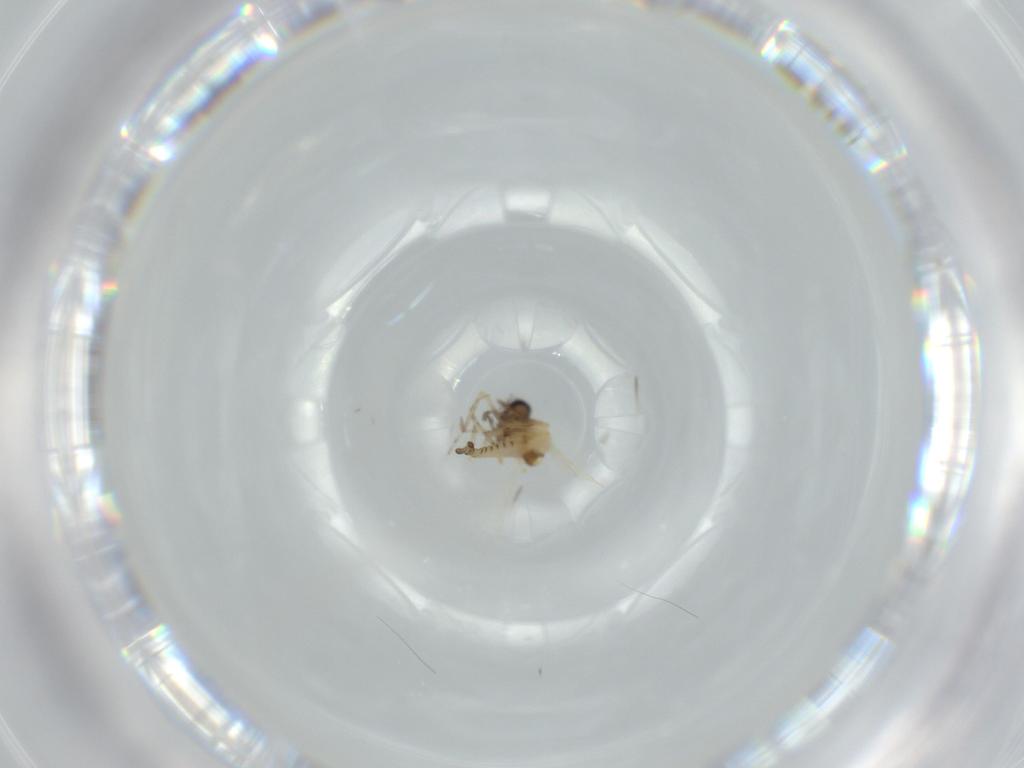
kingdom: Animalia
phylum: Arthropoda
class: Insecta
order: Diptera
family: Ceratopogonidae
